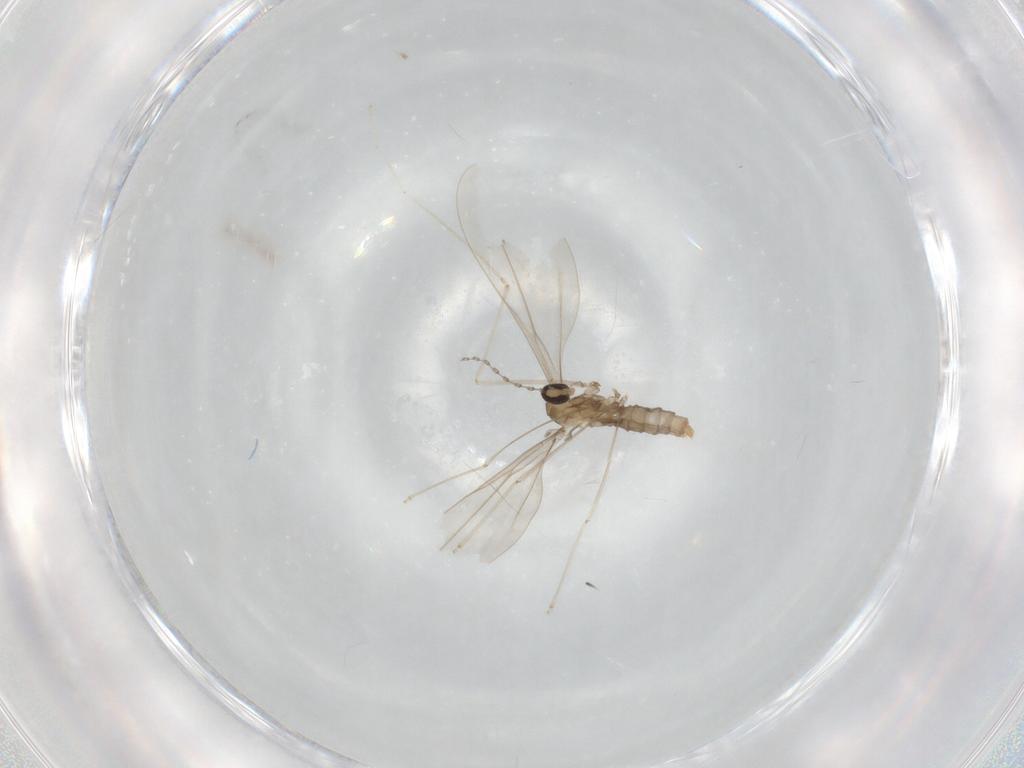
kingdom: Animalia
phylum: Arthropoda
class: Insecta
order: Diptera
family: Cecidomyiidae
